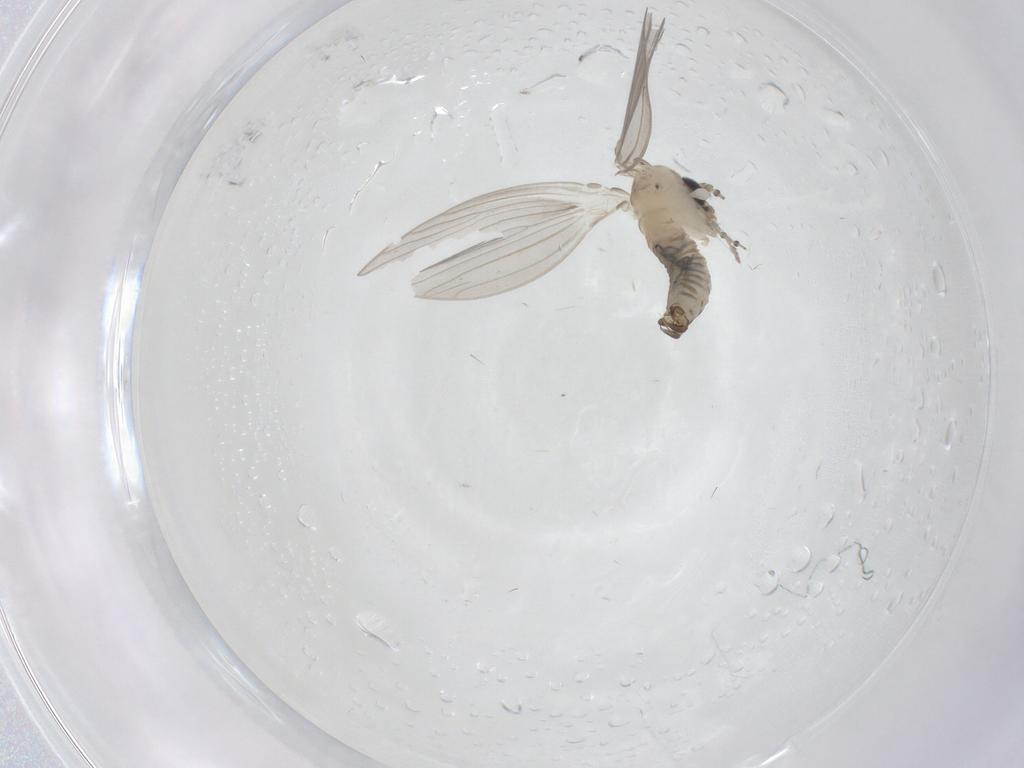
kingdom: Animalia
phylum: Arthropoda
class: Insecta
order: Diptera
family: Psychodidae
